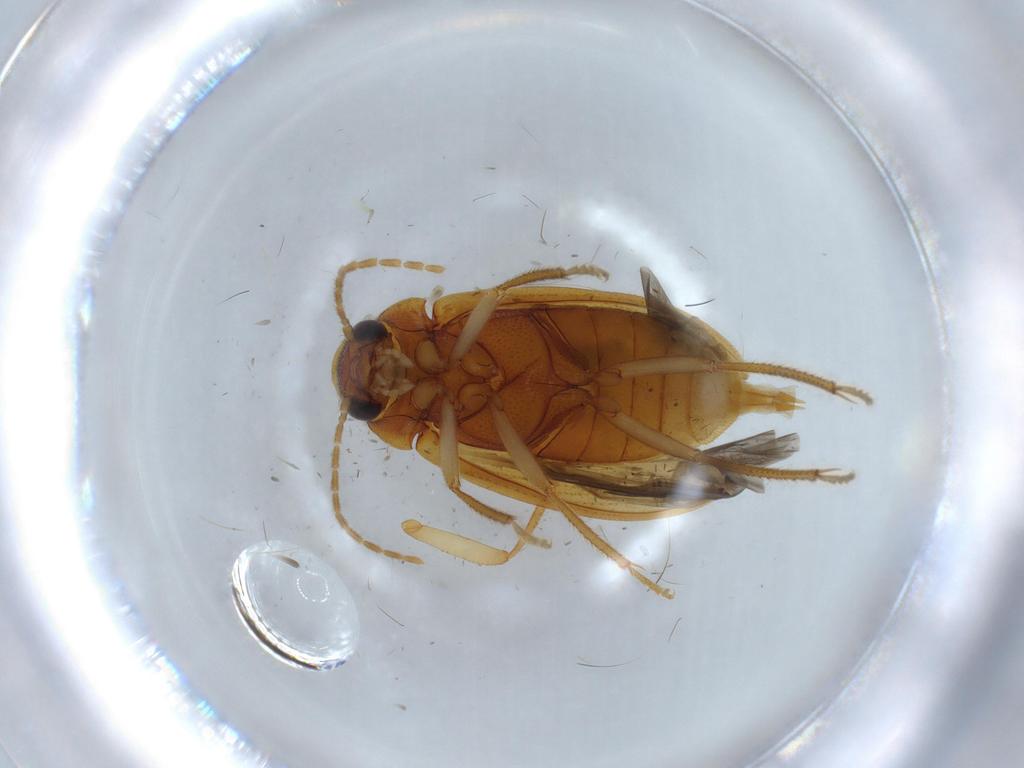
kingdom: Animalia
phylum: Arthropoda
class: Insecta
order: Coleoptera
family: Ptilodactylidae
